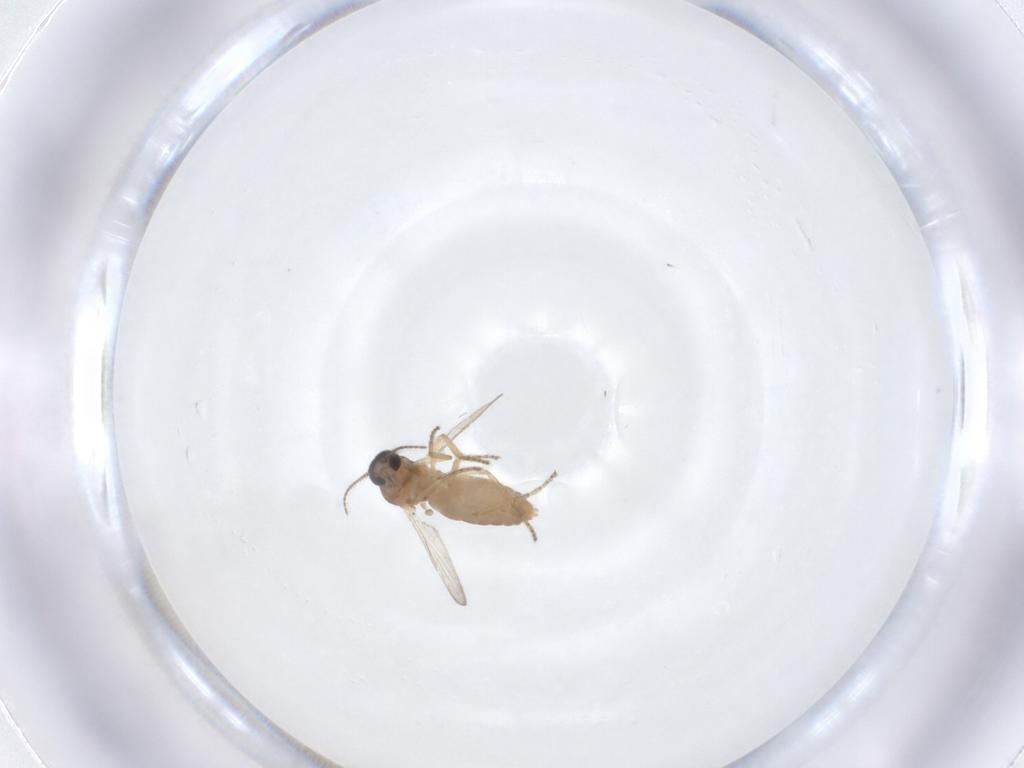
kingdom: Animalia
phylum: Arthropoda
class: Insecta
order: Diptera
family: Ceratopogonidae
